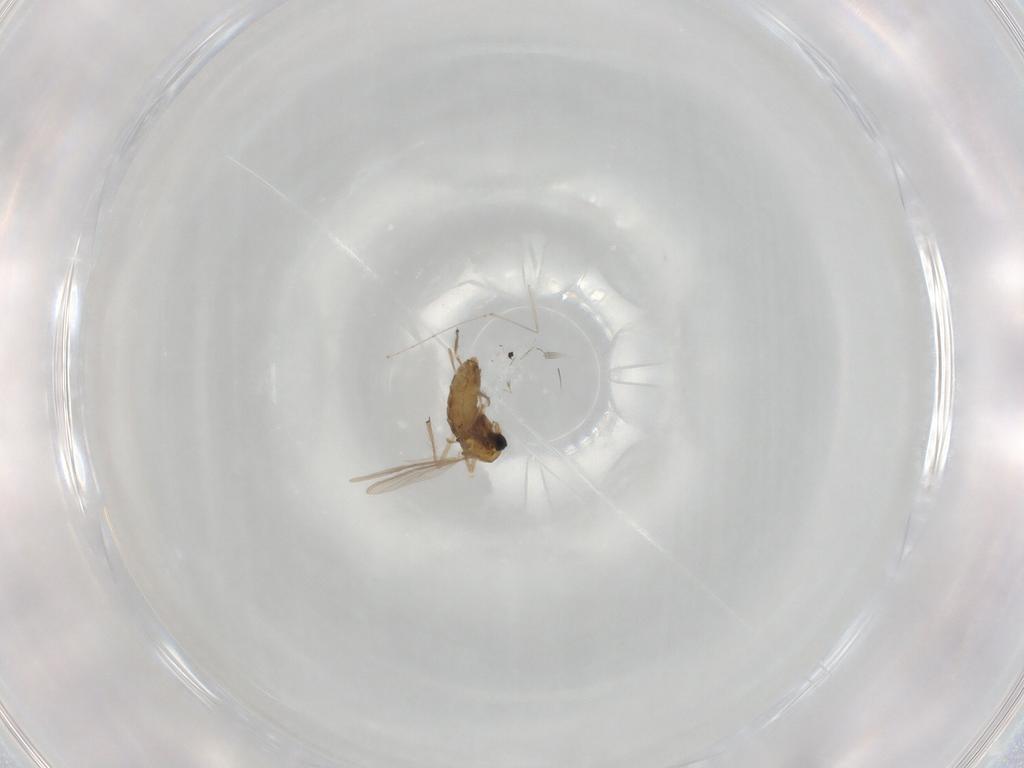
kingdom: Animalia
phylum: Arthropoda
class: Insecta
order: Diptera
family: Chironomidae
